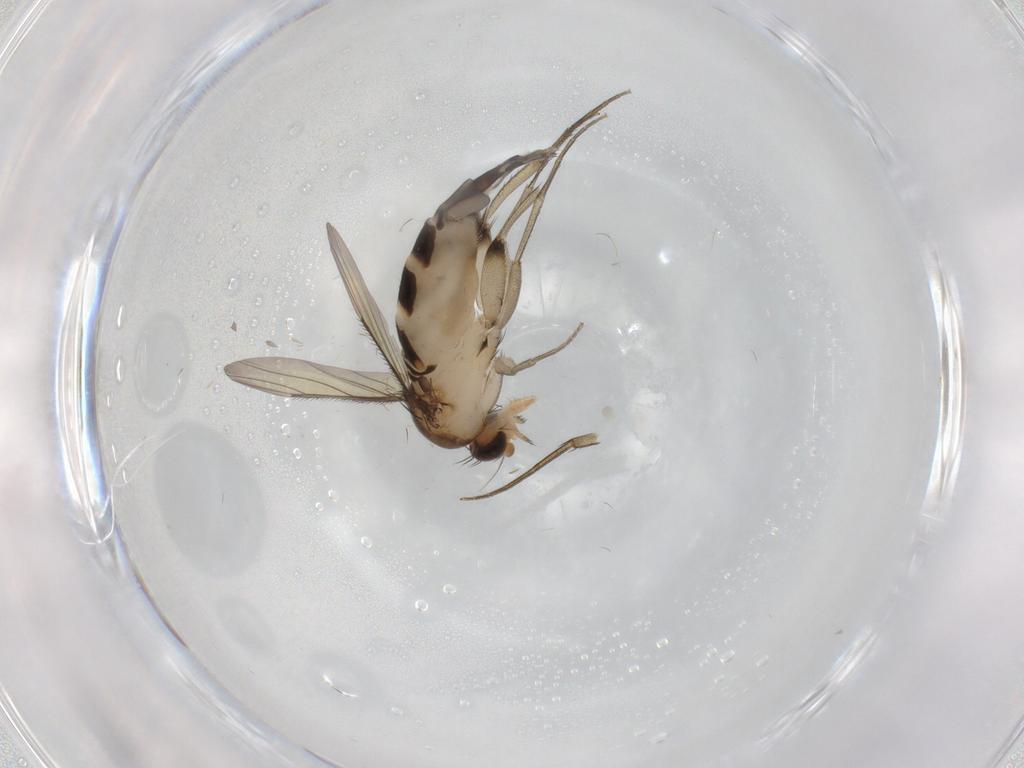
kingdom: Animalia
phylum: Arthropoda
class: Insecta
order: Diptera
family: Phoridae
